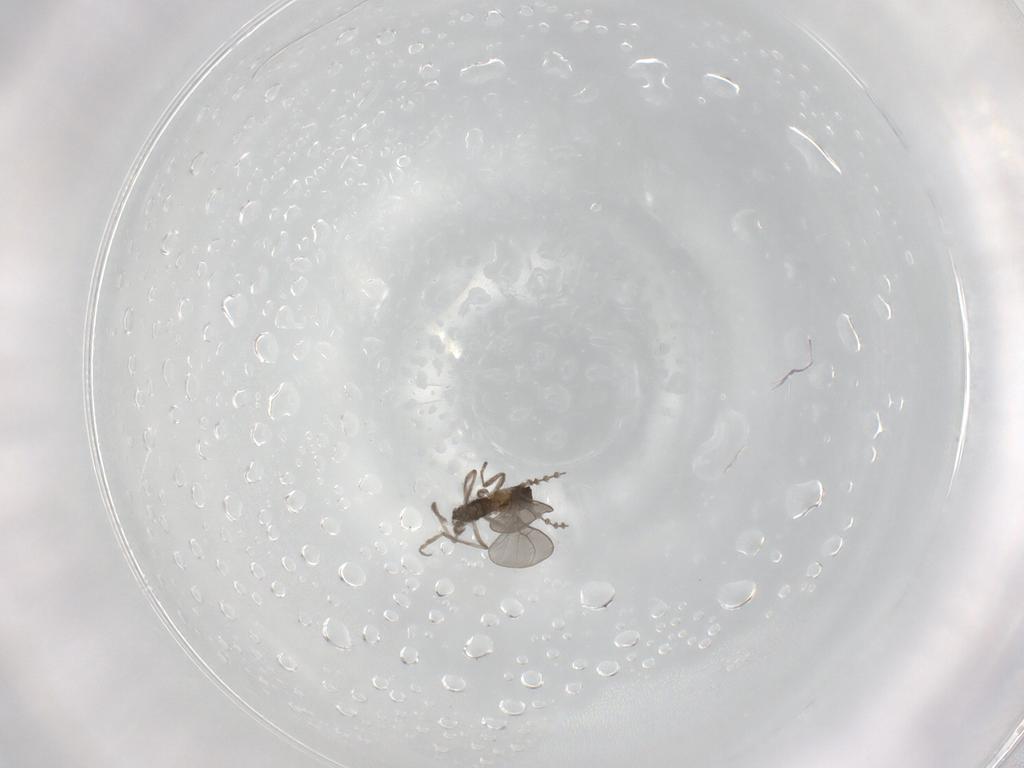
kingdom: Animalia
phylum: Arthropoda
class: Insecta
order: Diptera
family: Cecidomyiidae
